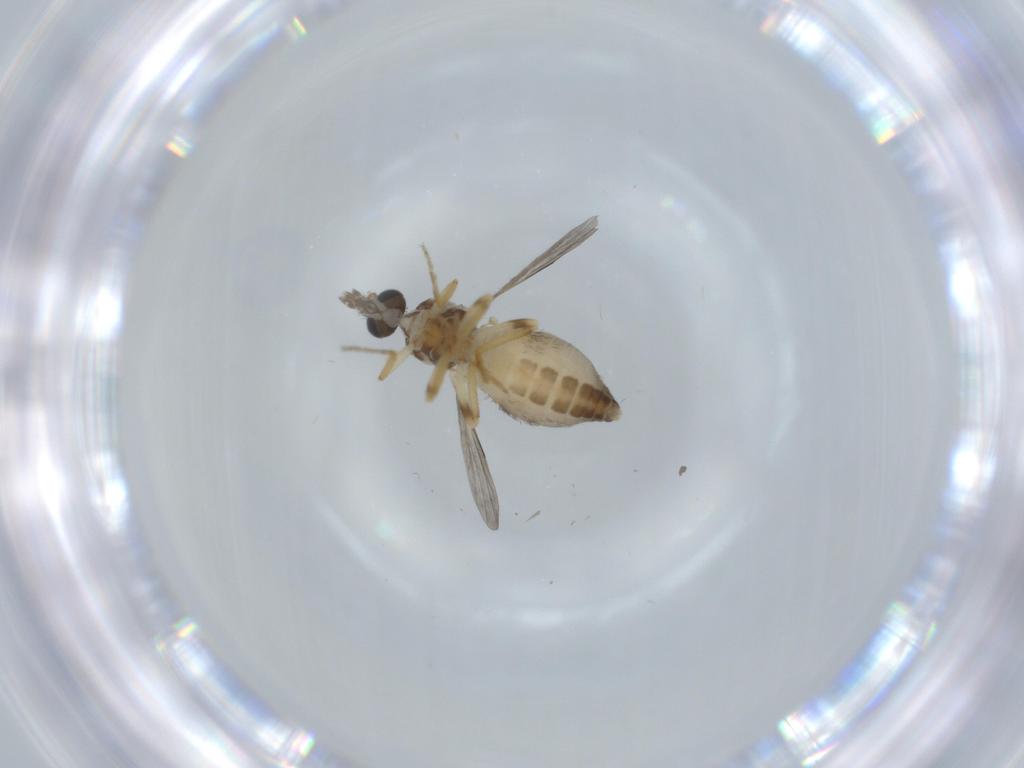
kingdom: Animalia
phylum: Arthropoda
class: Insecta
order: Diptera
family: Ceratopogonidae
